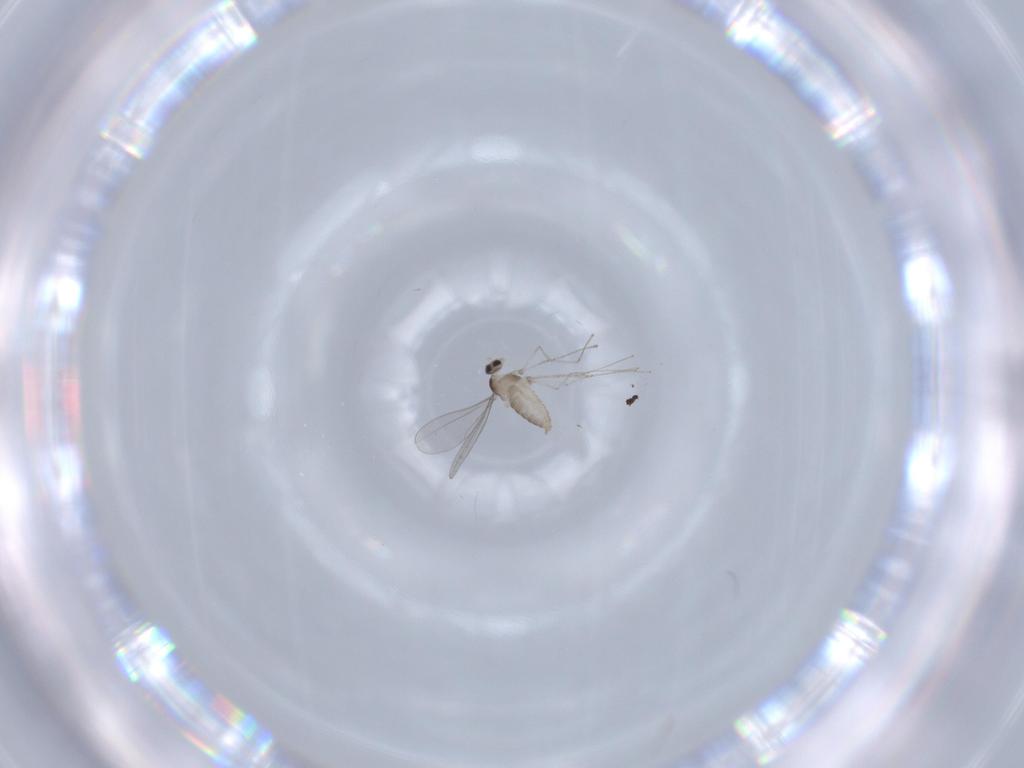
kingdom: Animalia
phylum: Arthropoda
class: Insecta
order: Diptera
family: Cecidomyiidae
